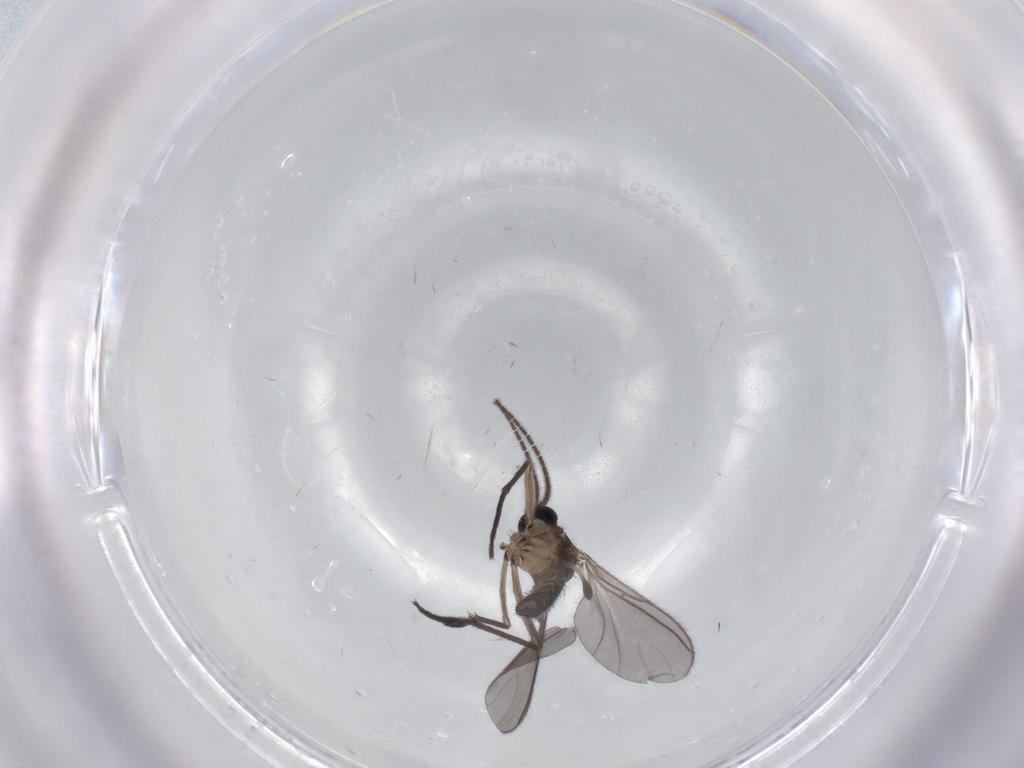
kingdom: Animalia
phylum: Arthropoda
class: Insecta
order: Diptera
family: Sciaridae
